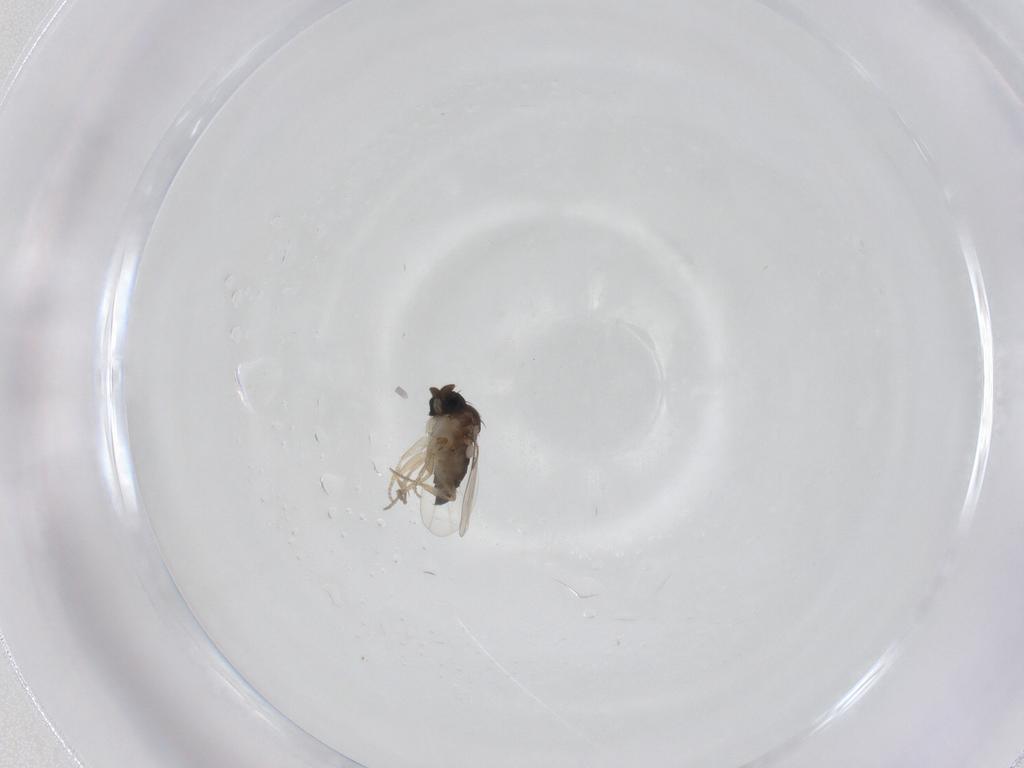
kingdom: Animalia
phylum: Arthropoda
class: Insecta
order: Diptera
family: Phoridae
